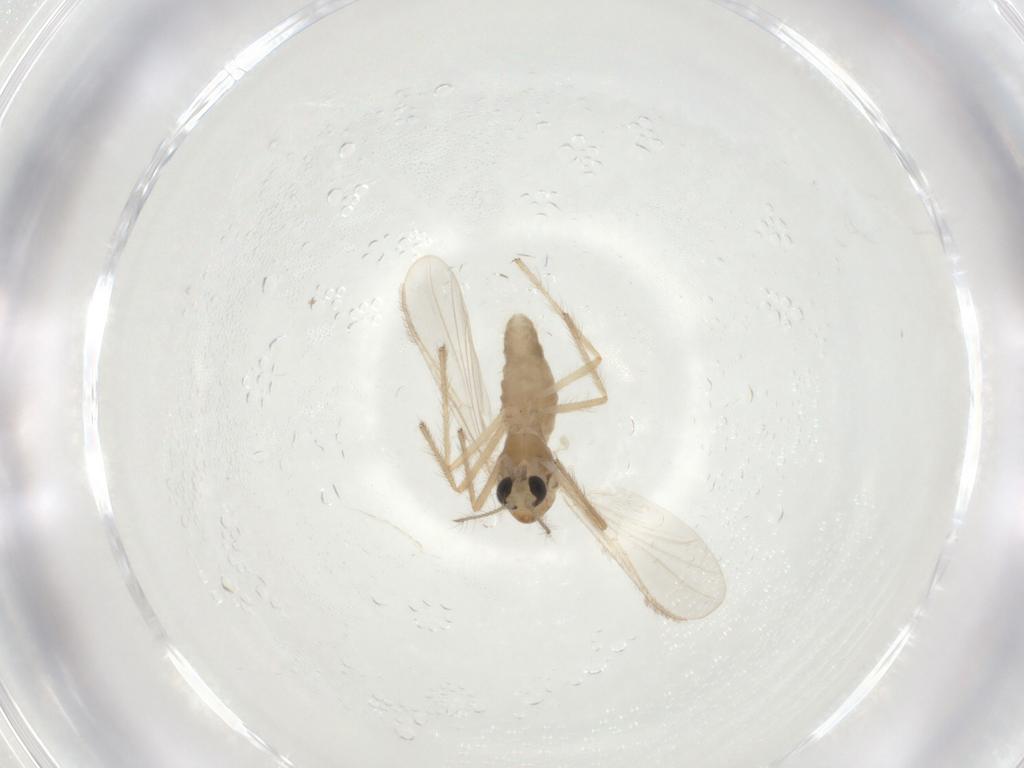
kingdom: Animalia
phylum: Arthropoda
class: Insecta
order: Diptera
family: Chironomidae
